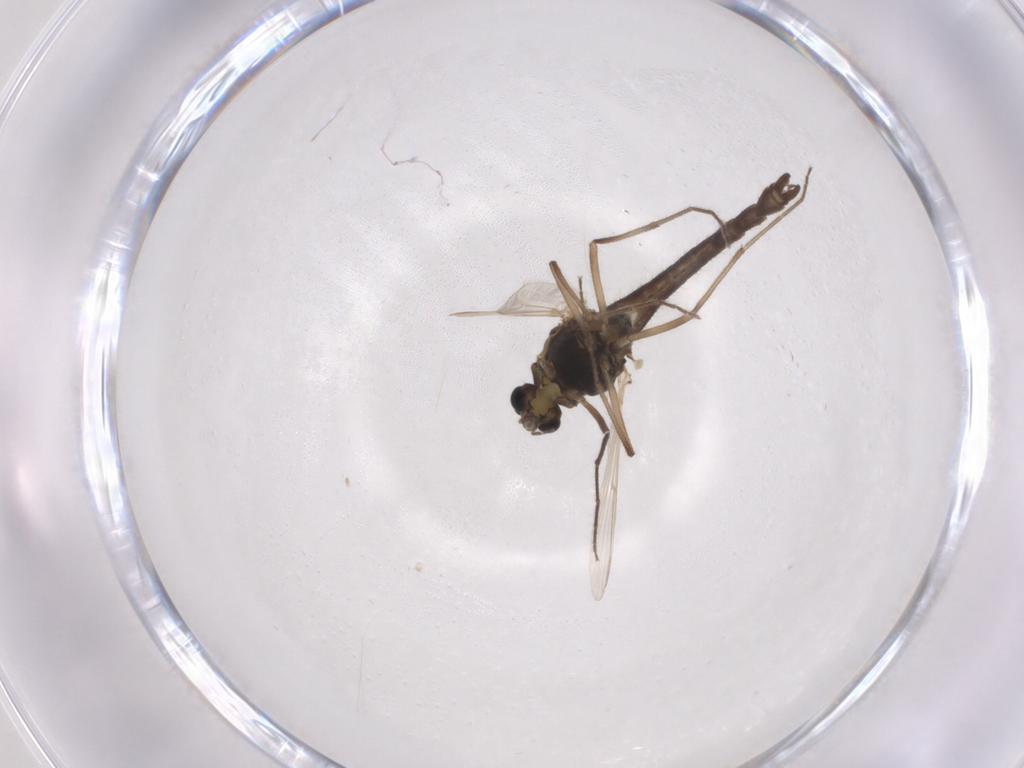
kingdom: Animalia
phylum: Arthropoda
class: Insecta
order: Diptera
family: Chironomidae
